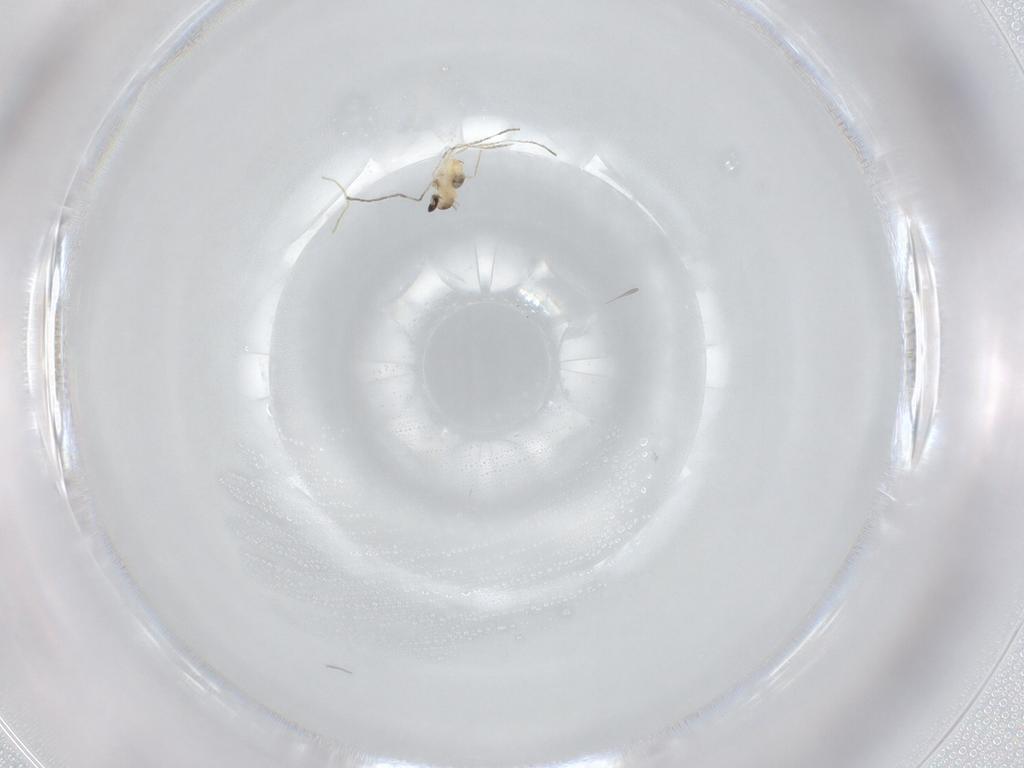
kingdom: Animalia
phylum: Arthropoda
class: Insecta
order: Diptera
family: Cecidomyiidae
